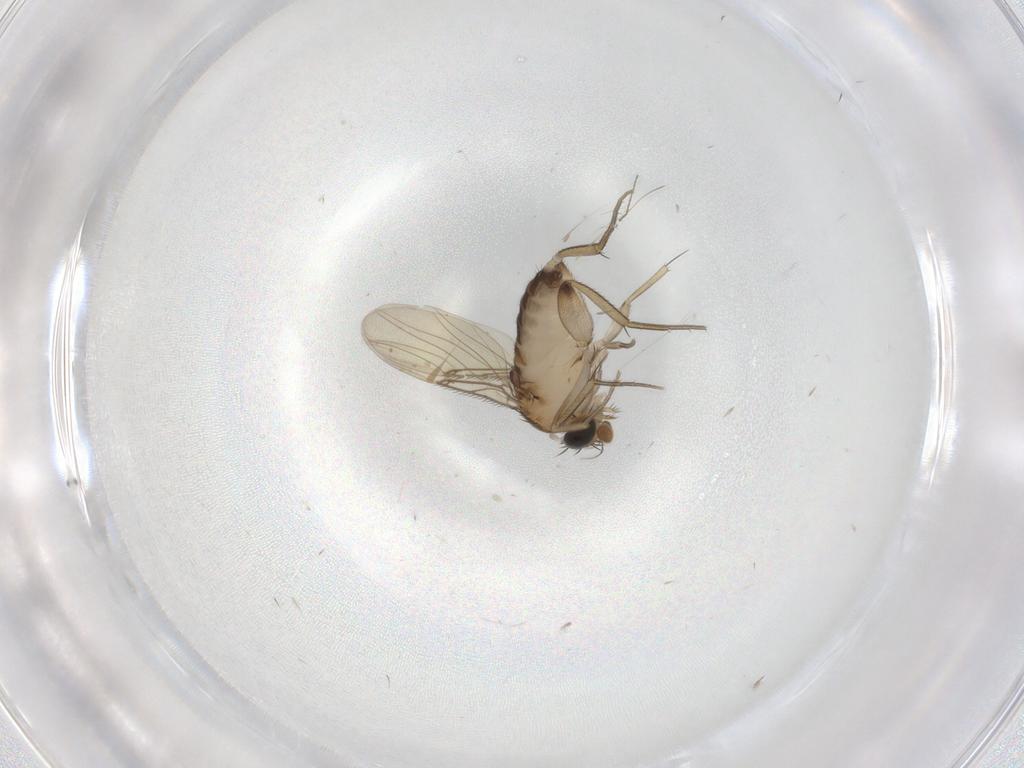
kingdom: Animalia
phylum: Arthropoda
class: Insecta
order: Diptera
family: Phoridae
